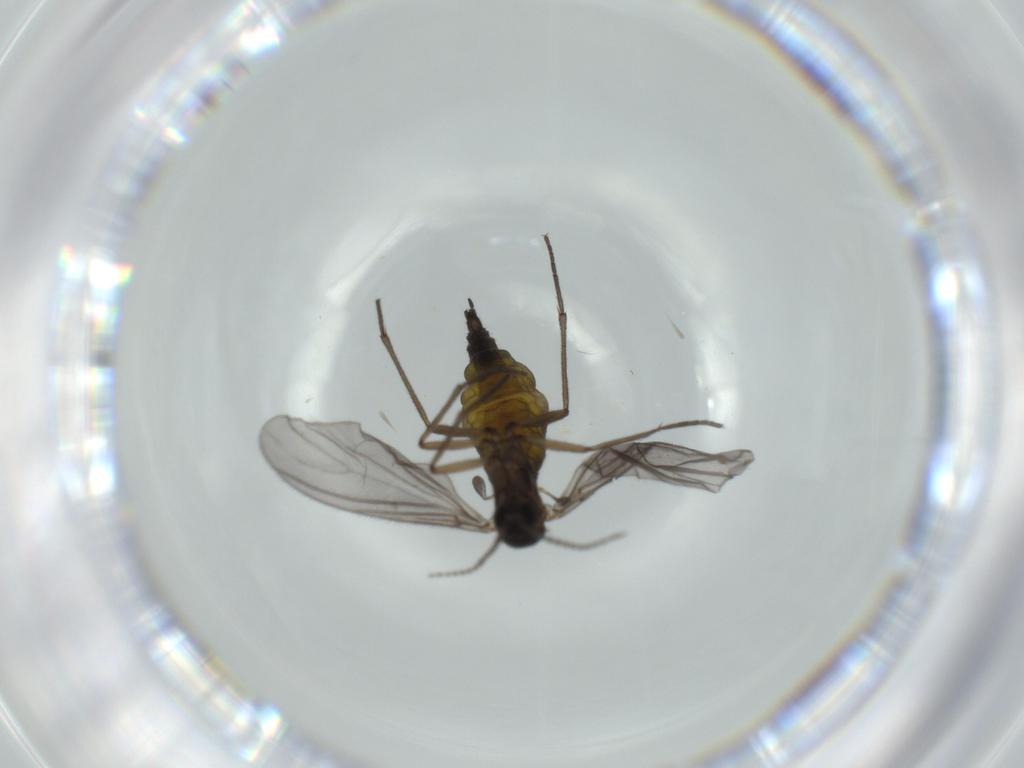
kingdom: Animalia
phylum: Arthropoda
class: Insecta
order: Diptera
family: Sciaridae
